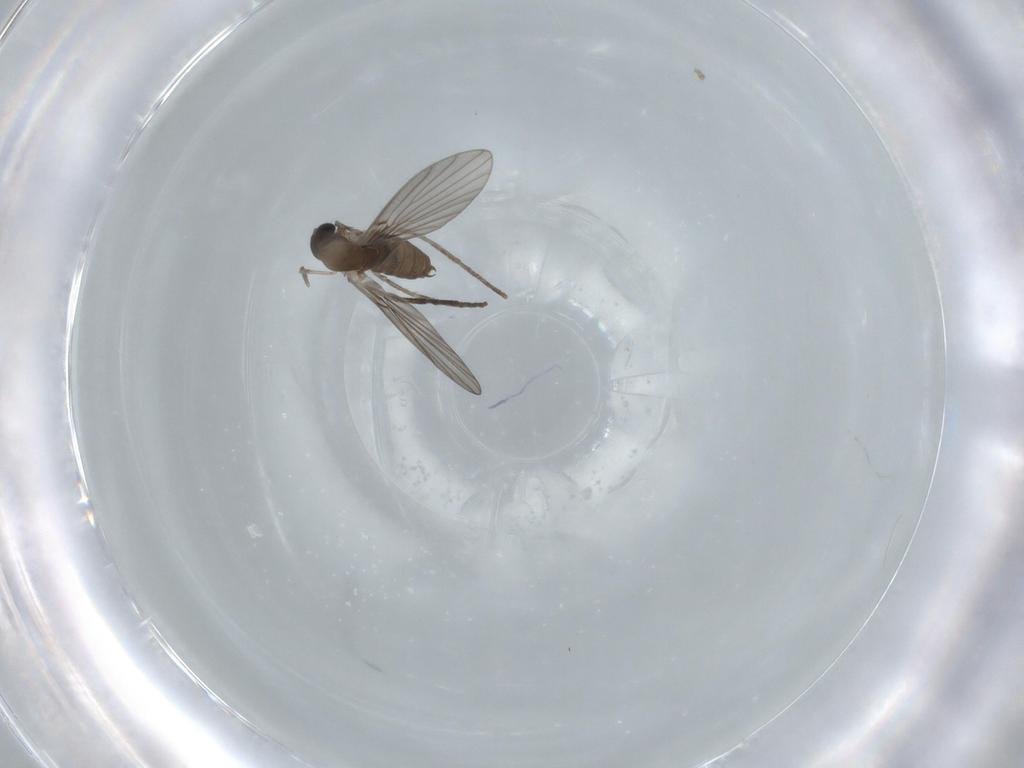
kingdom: Animalia
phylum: Arthropoda
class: Insecta
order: Diptera
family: Psychodidae
